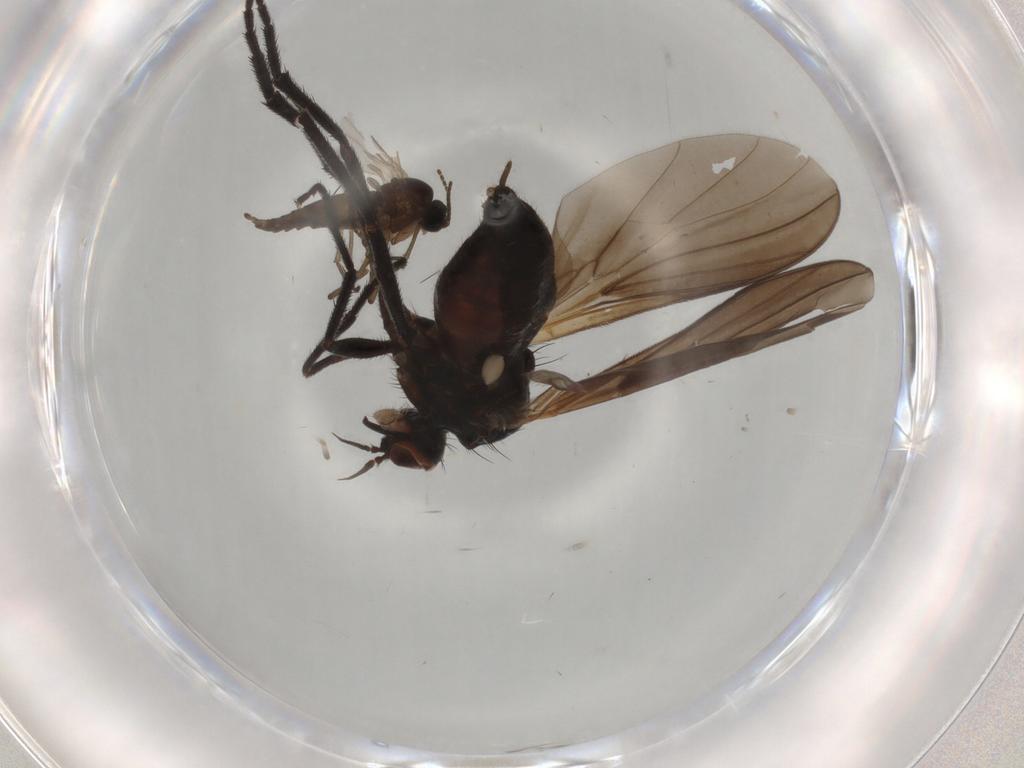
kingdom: Animalia
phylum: Arthropoda
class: Insecta
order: Diptera
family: Empididae
